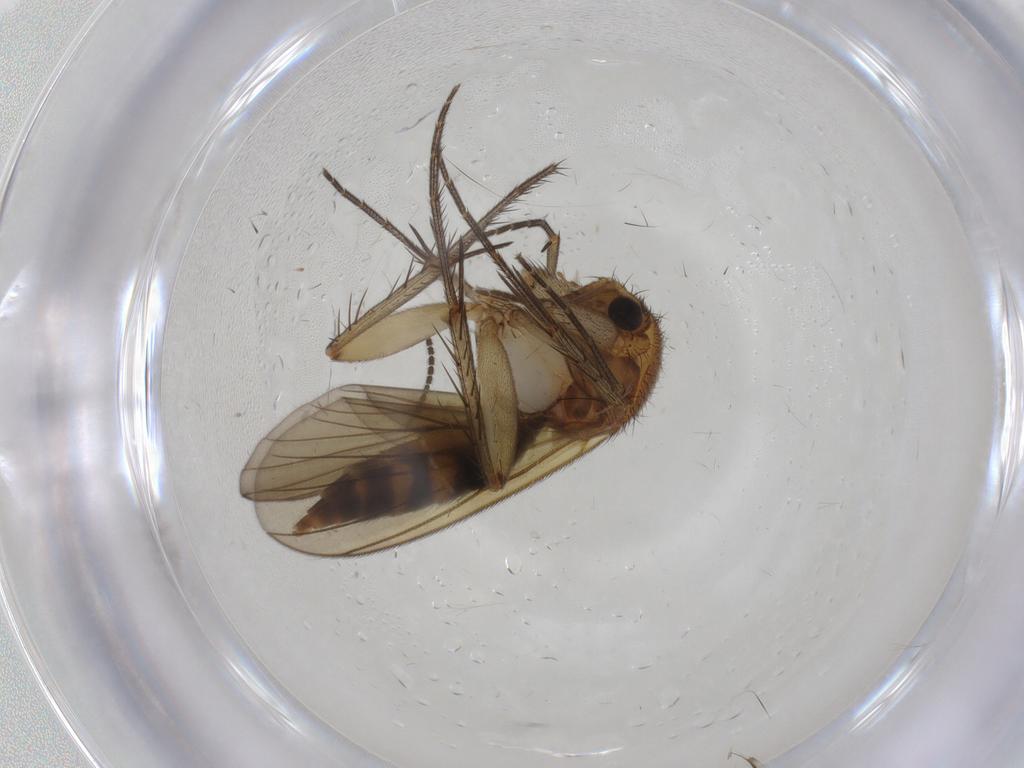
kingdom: Animalia
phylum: Arthropoda
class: Insecta
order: Diptera
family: Mycetophilidae
